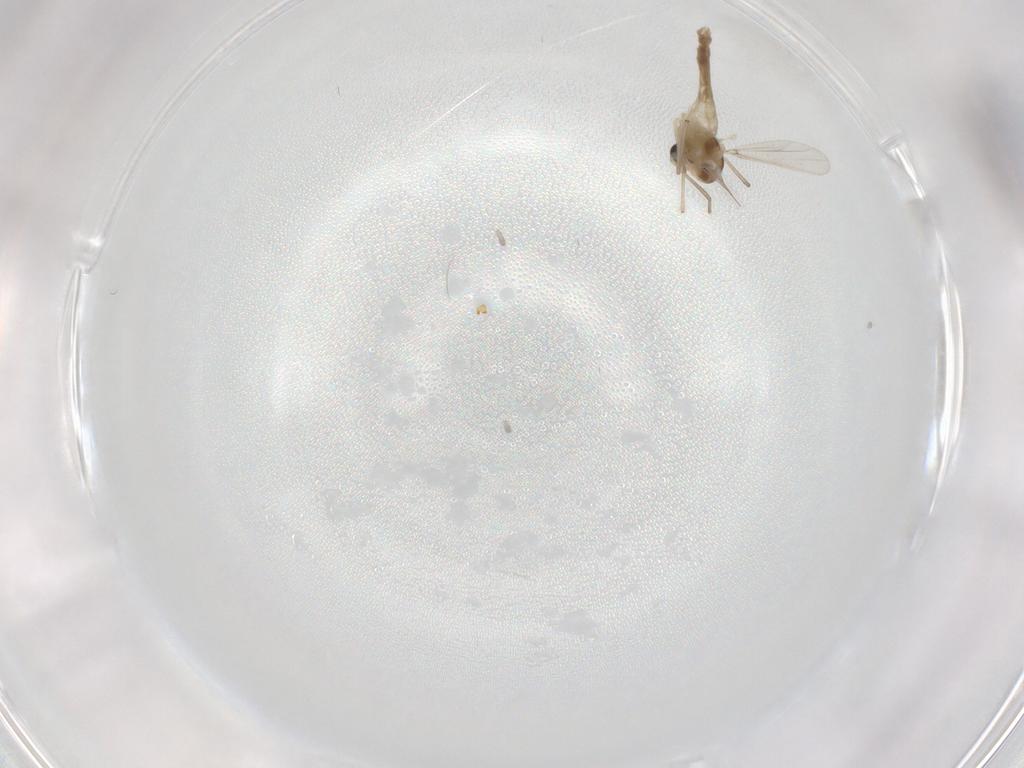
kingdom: Animalia
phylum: Arthropoda
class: Insecta
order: Diptera
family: Chironomidae
